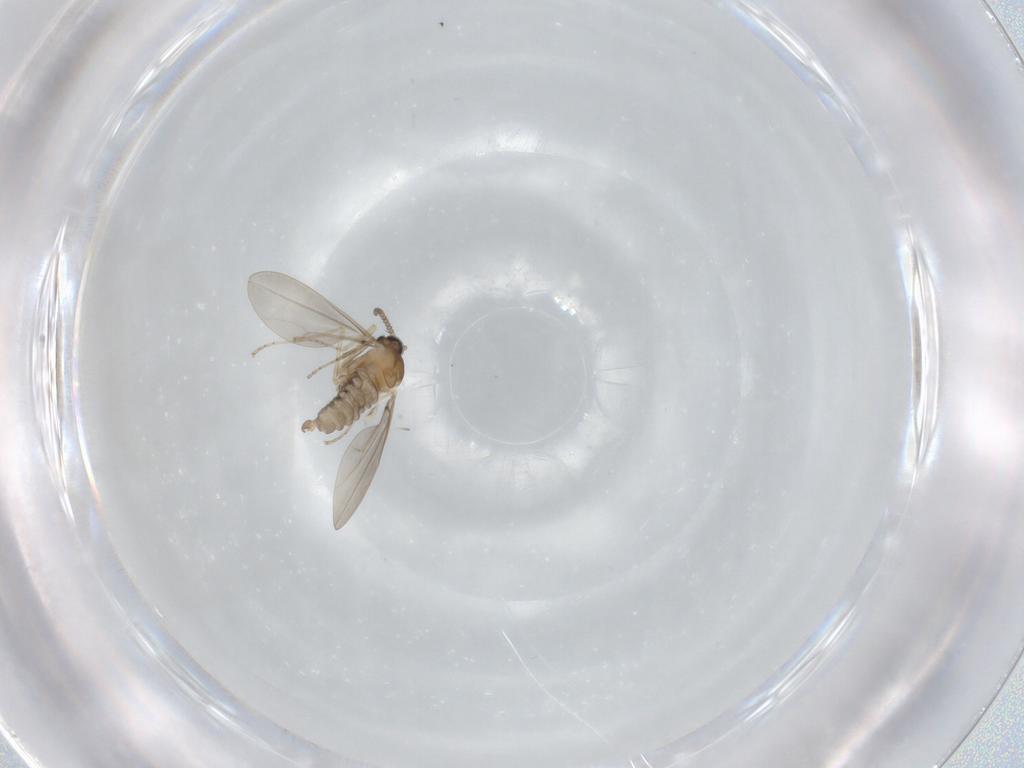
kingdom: Animalia
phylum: Arthropoda
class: Insecta
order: Diptera
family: Cecidomyiidae
